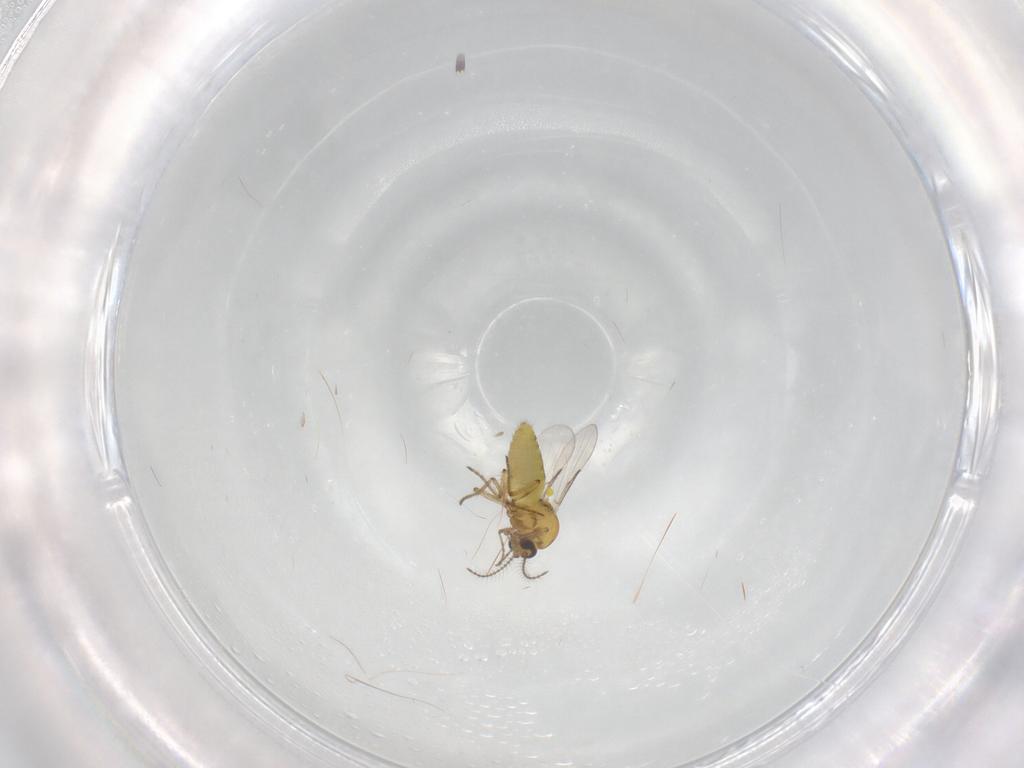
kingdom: Animalia
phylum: Arthropoda
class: Insecta
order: Diptera
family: Ceratopogonidae
